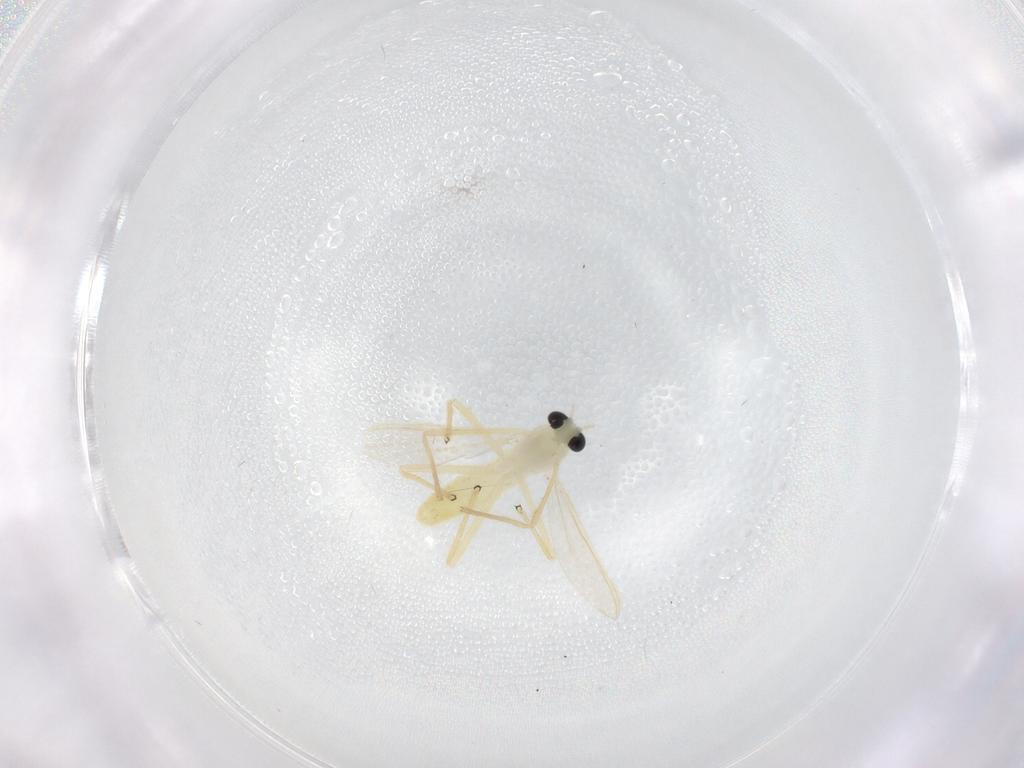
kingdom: Animalia
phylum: Arthropoda
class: Insecta
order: Diptera
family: Chironomidae
